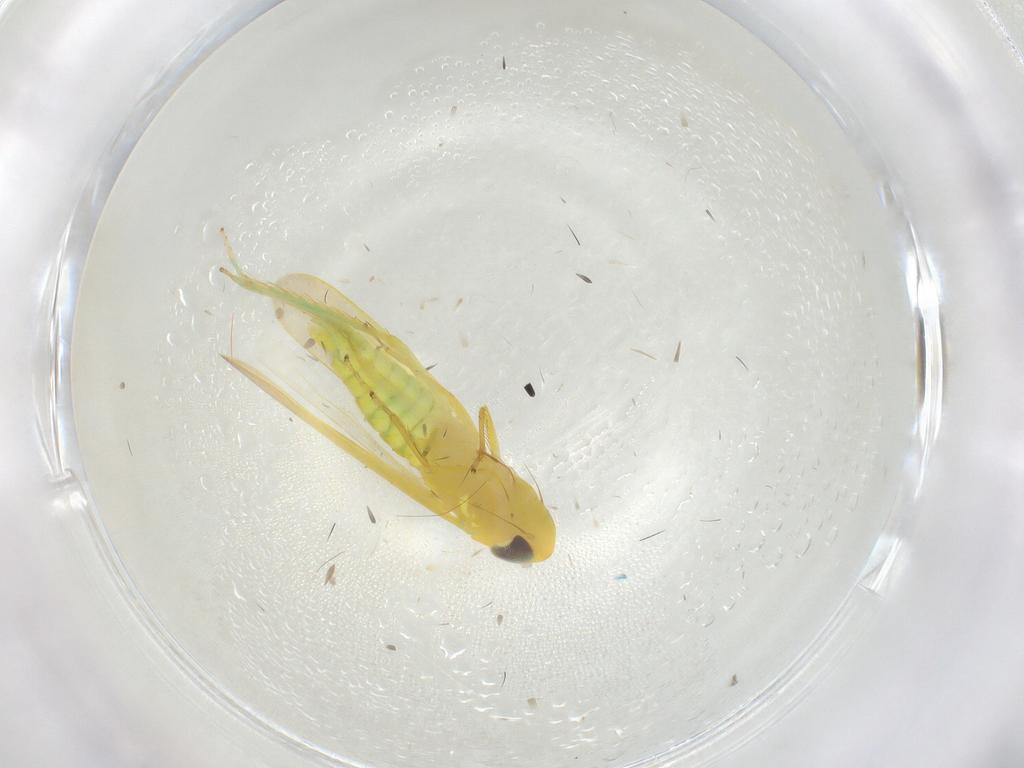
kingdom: Animalia
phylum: Arthropoda
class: Insecta
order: Hemiptera
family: Cicadellidae
